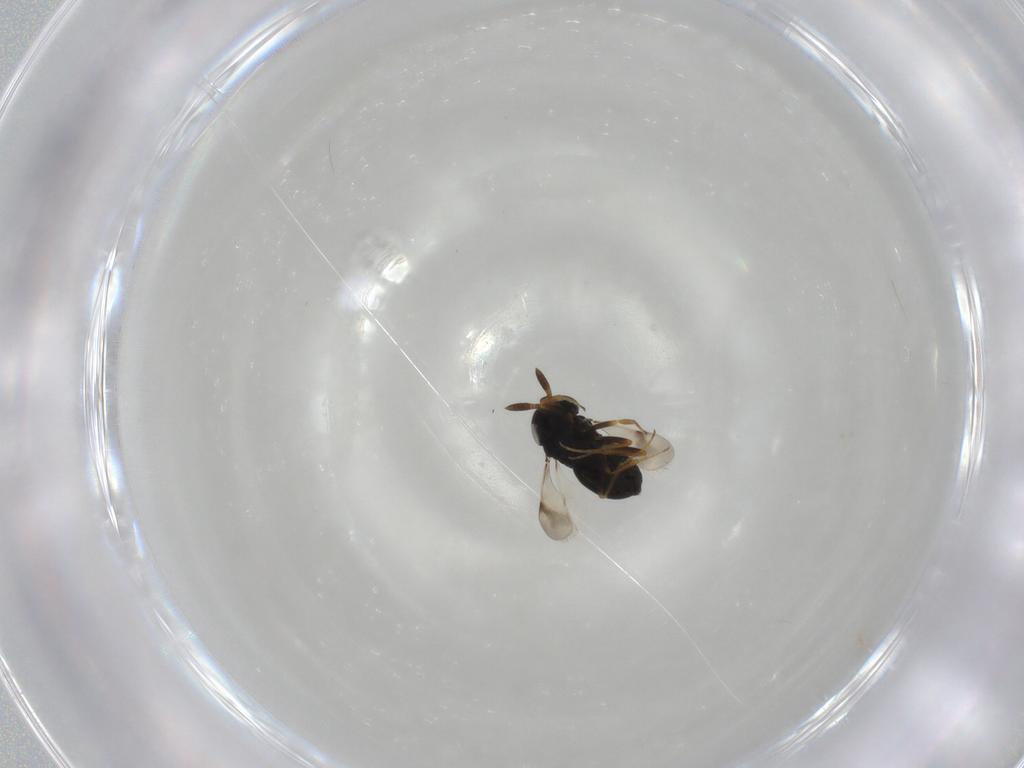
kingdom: Animalia
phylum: Arthropoda
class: Insecta
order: Hymenoptera
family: Scelionidae
